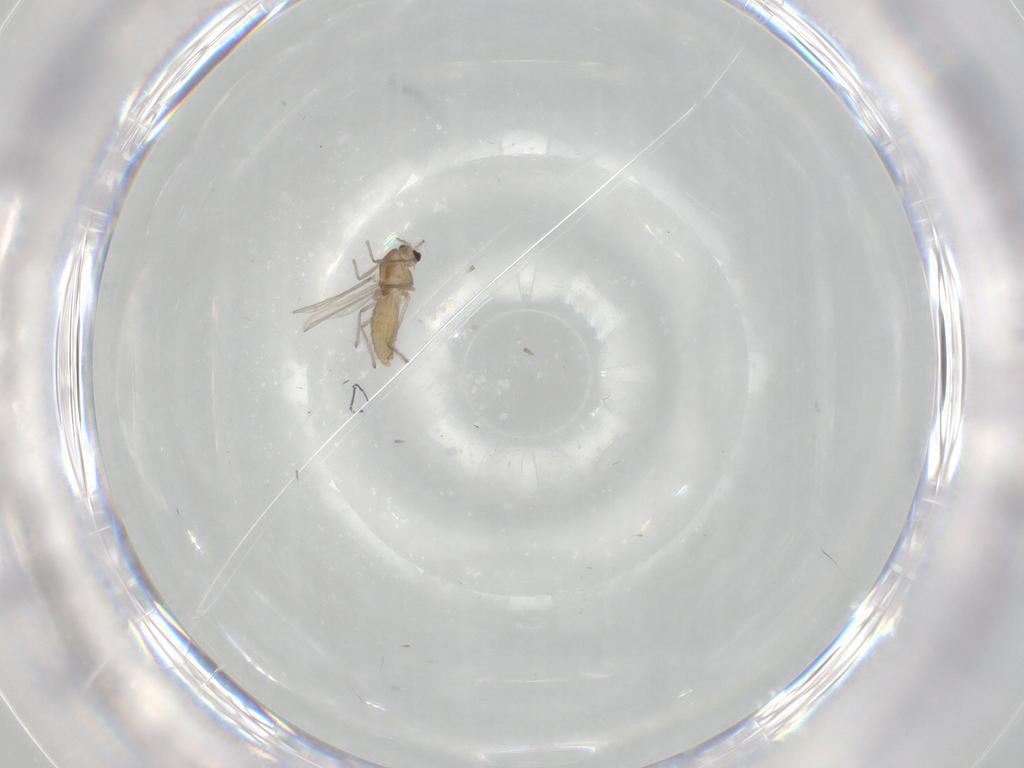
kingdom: Animalia
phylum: Arthropoda
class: Insecta
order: Diptera
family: Chironomidae
